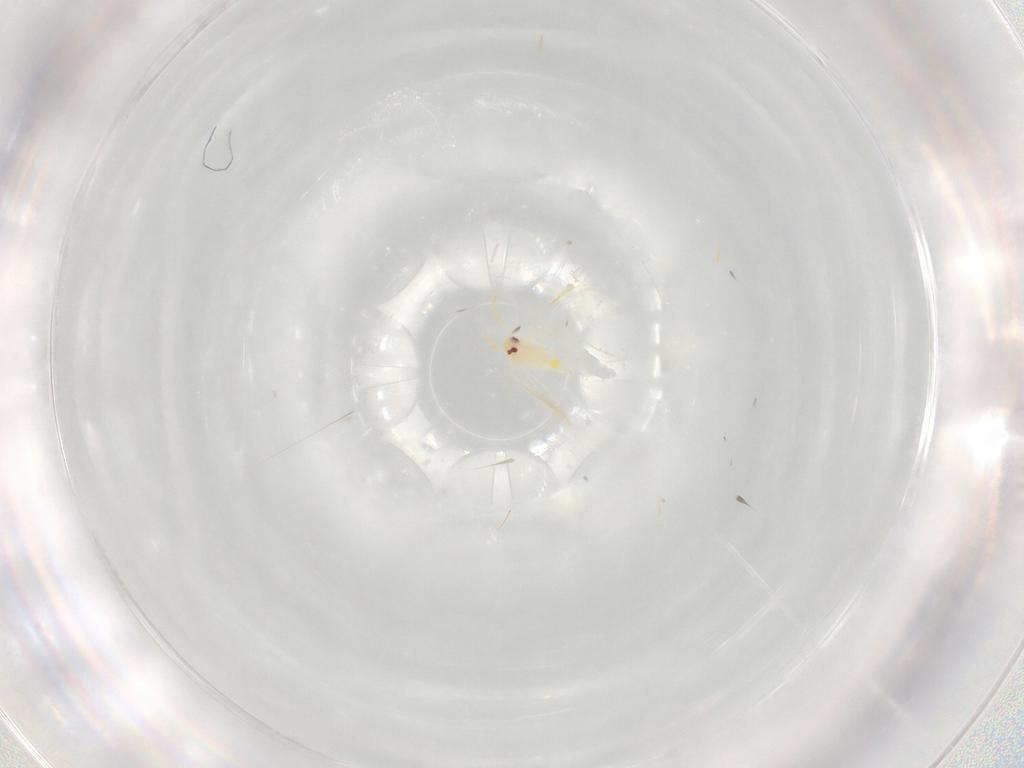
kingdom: Animalia
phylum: Arthropoda
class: Insecta
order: Hemiptera
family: Aleyrodidae
